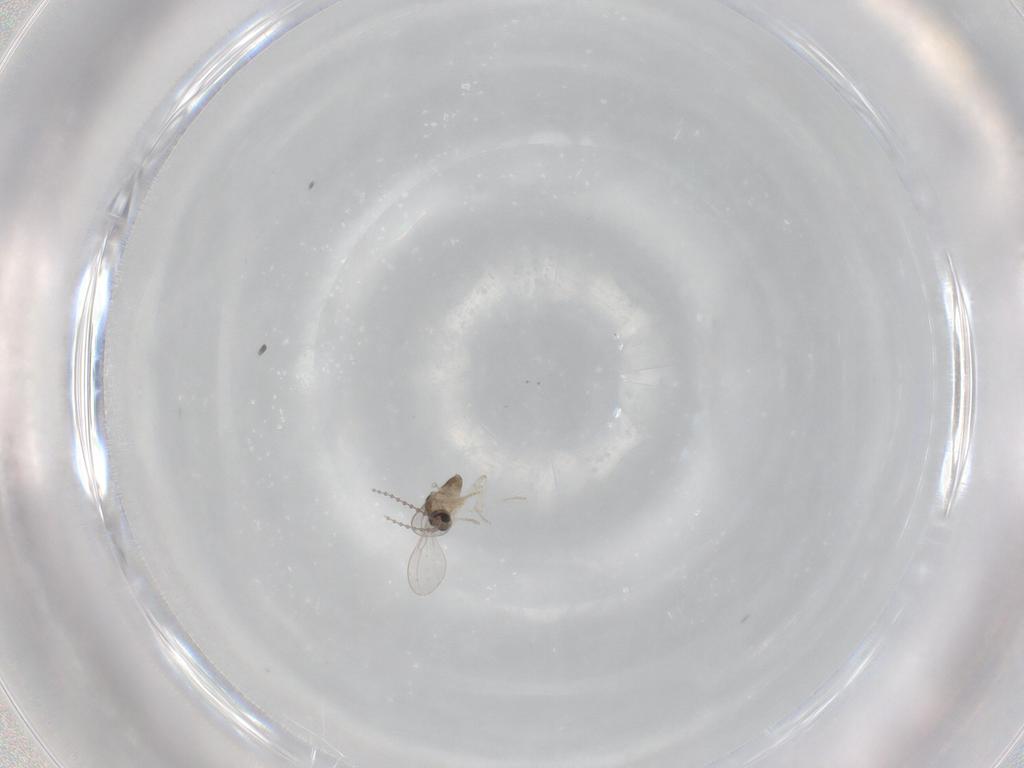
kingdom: Animalia
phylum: Arthropoda
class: Insecta
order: Diptera
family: Cecidomyiidae
